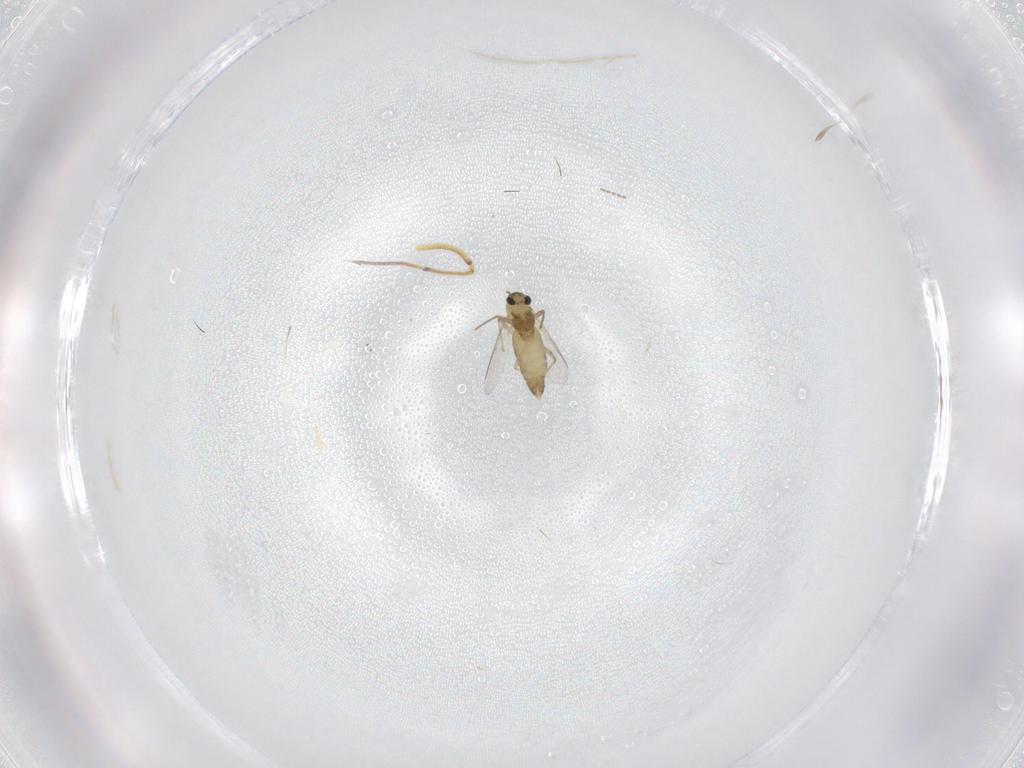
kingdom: Animalia
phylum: Arthropoda
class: Insecta
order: Diptera
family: Chironomidae
